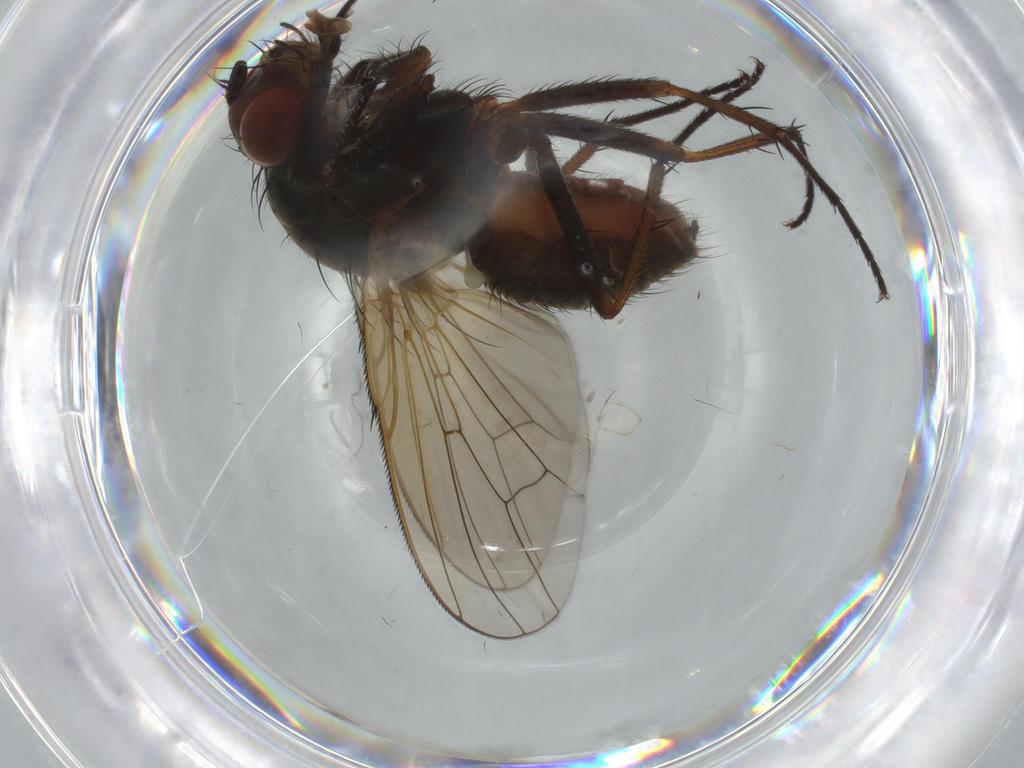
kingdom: Animalia
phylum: Arthropoda
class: Insecta
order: Diptera
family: Anthomyiidae
